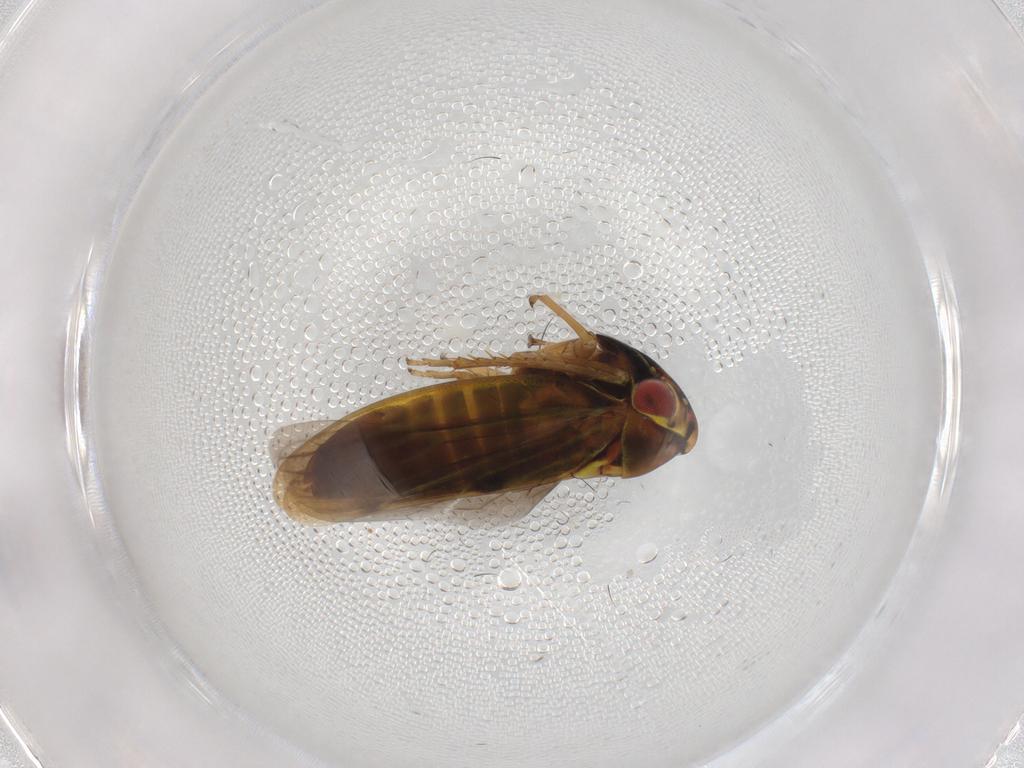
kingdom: Animalia
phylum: Arthropoda
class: Insecta
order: Hemiptera
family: Cicadellidae
